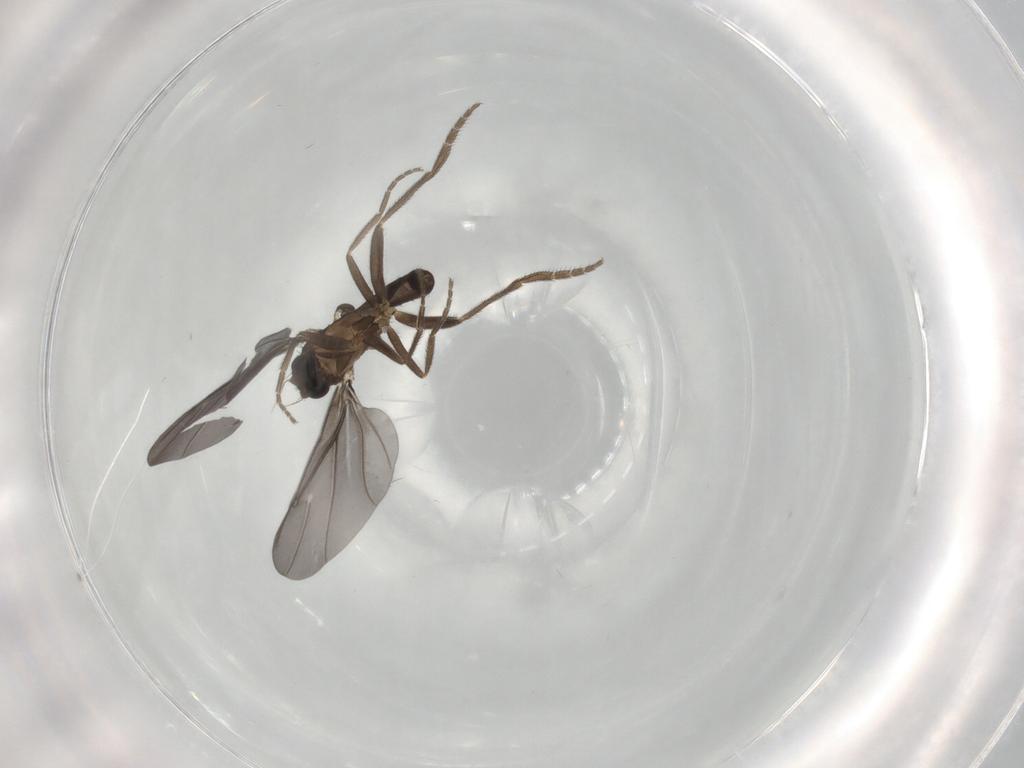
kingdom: Animalia
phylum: Arthropoda
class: Insecta
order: Diptera
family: Phoridae
